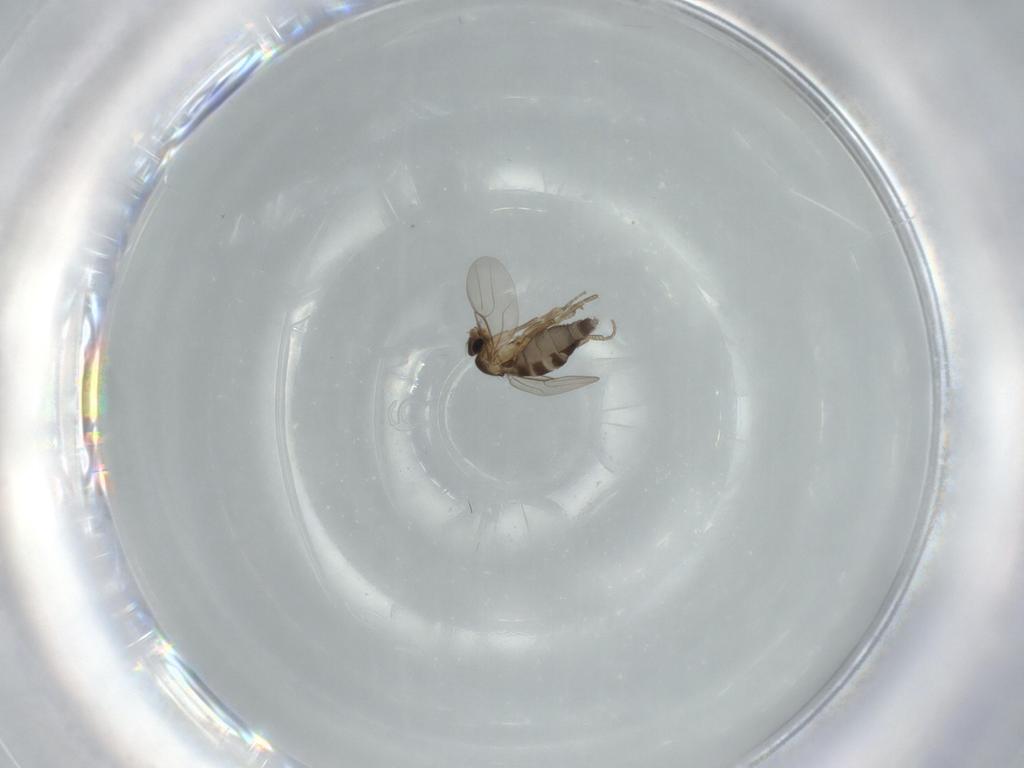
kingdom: Animalia
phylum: Arthropoda
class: Insecta
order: Diptera
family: Phoridae
